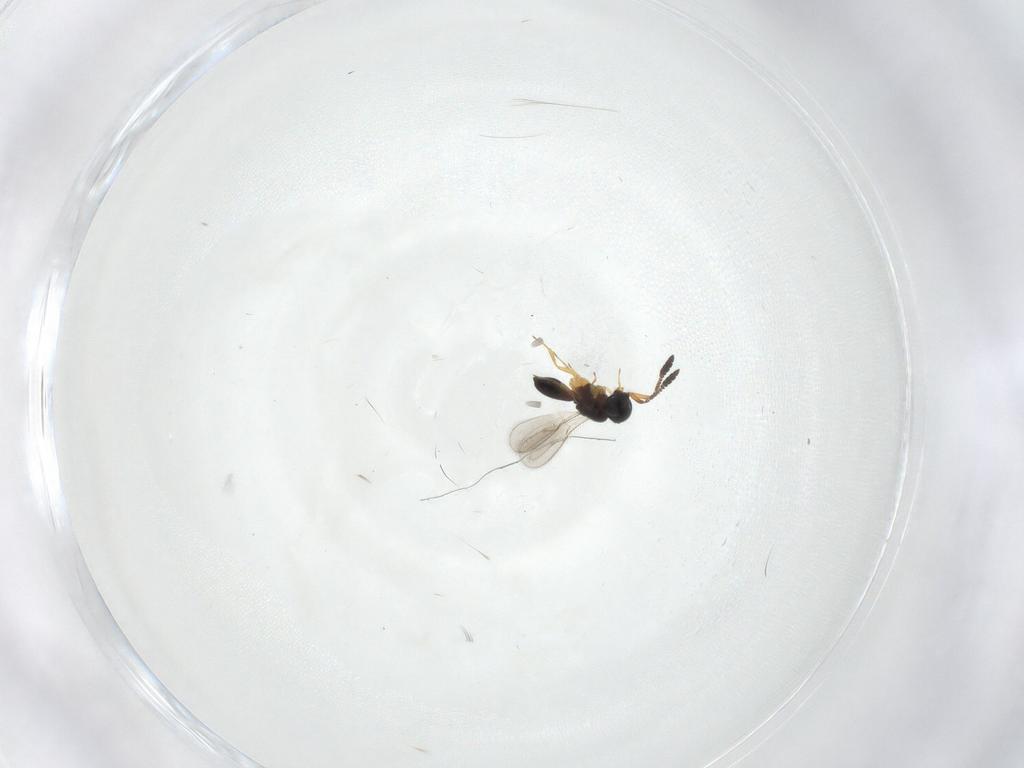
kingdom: Animalia
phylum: Arthropoda
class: Insecta
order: Hymenoptera
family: Scelionidae
